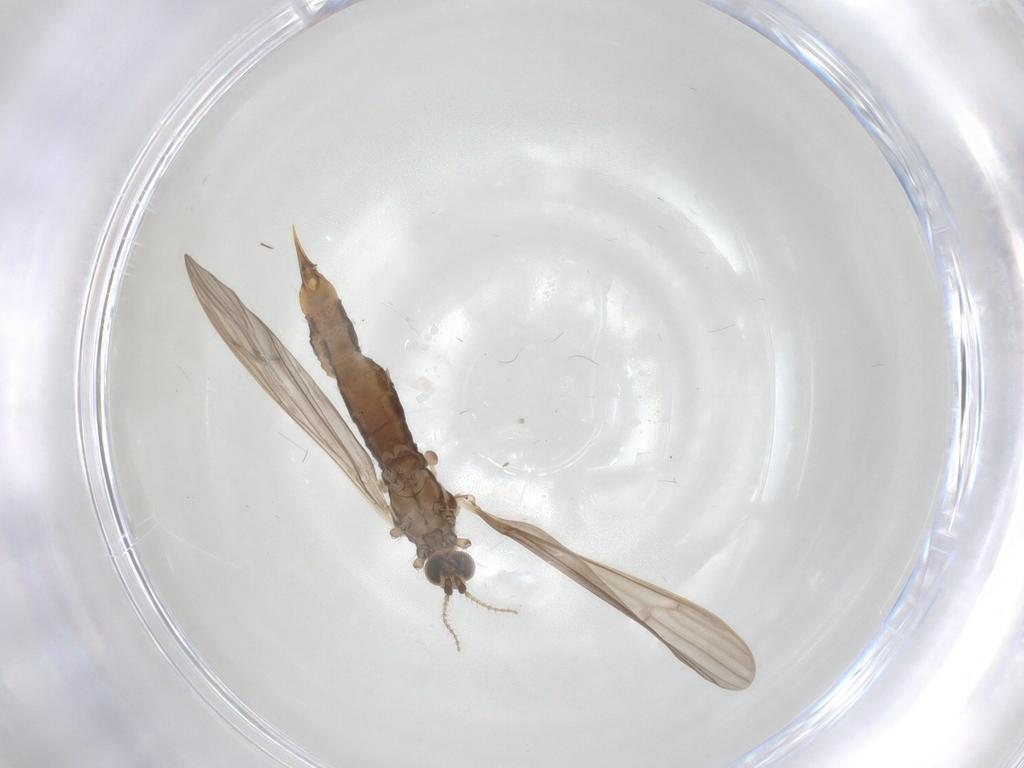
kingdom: Animalia
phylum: Arthropoda
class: Insecta
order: Diptera
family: Limoniidae
